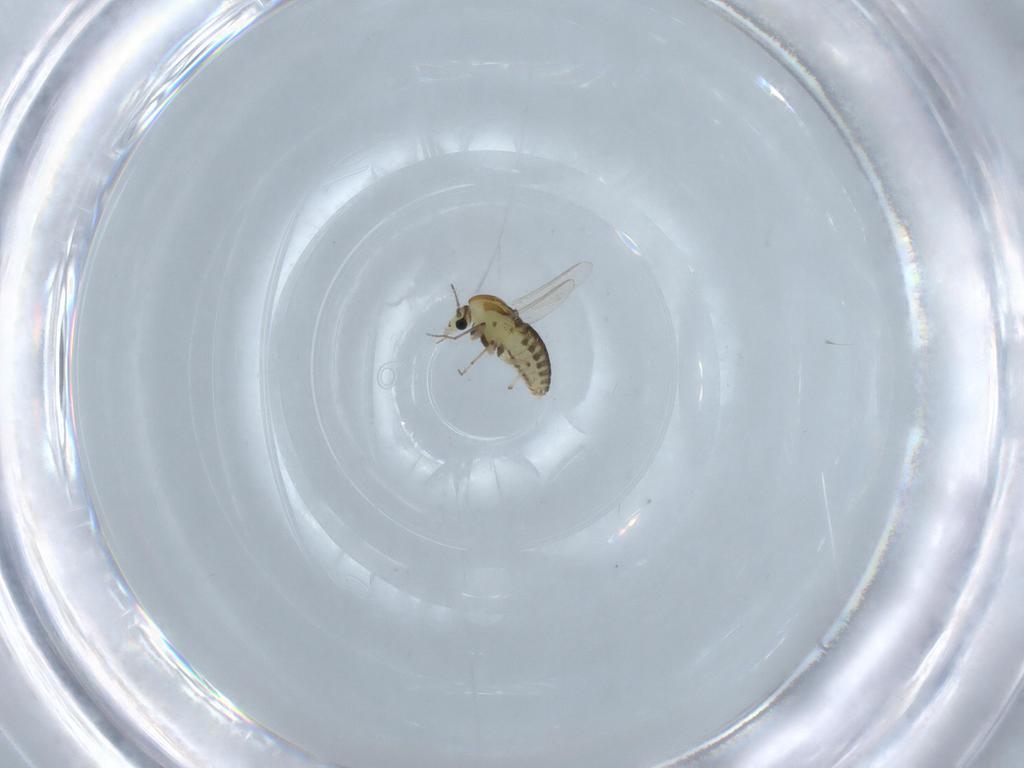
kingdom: Animalia
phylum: Arthropoda
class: Insecta
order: Diptera
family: Chironomidae
